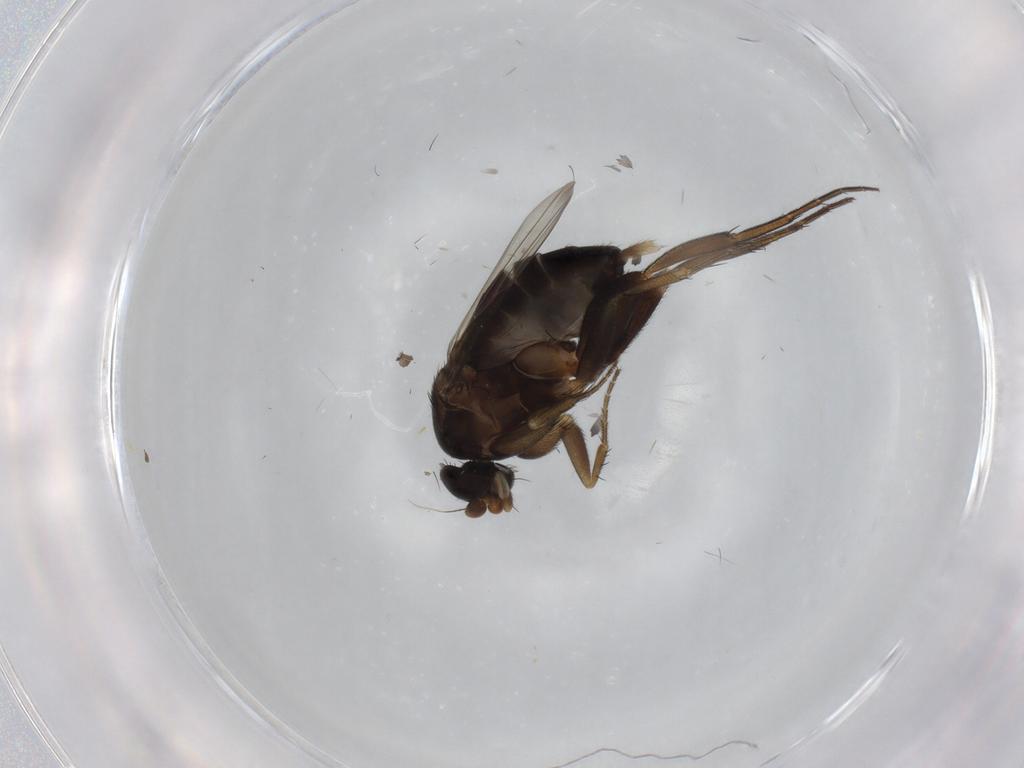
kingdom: Animalia
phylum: Arthropoda
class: Insecta
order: Diptera
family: Phoridae
